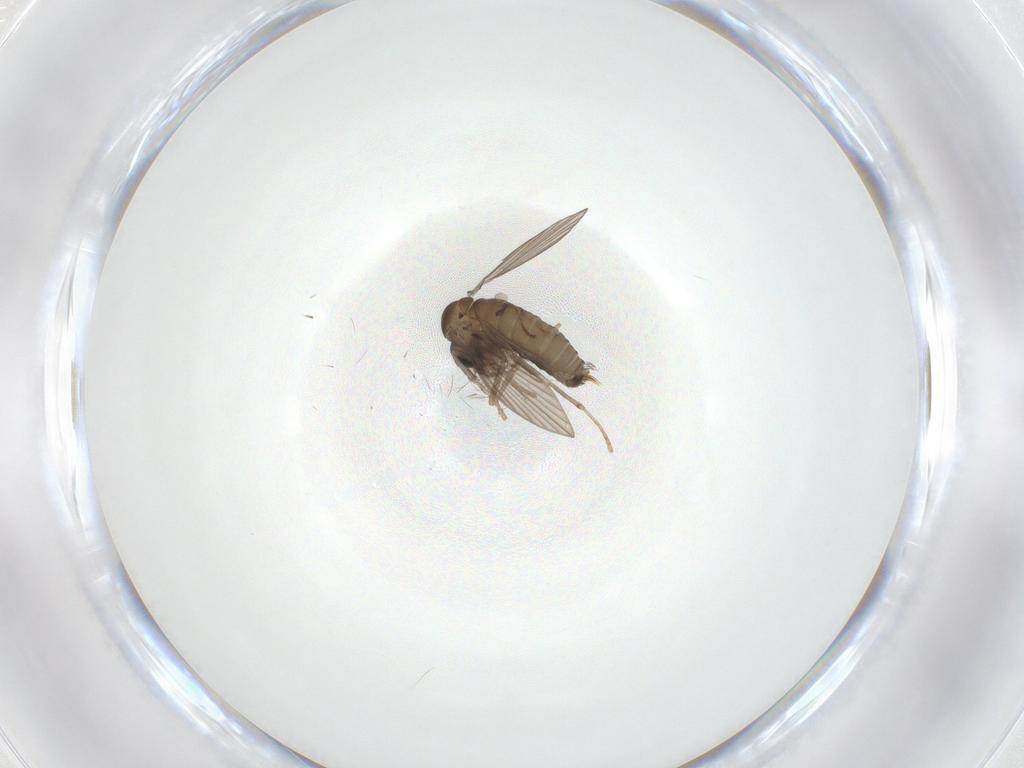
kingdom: Animalia
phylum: Arthropoda
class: Insecta
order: Diptera
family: Psychodidae
